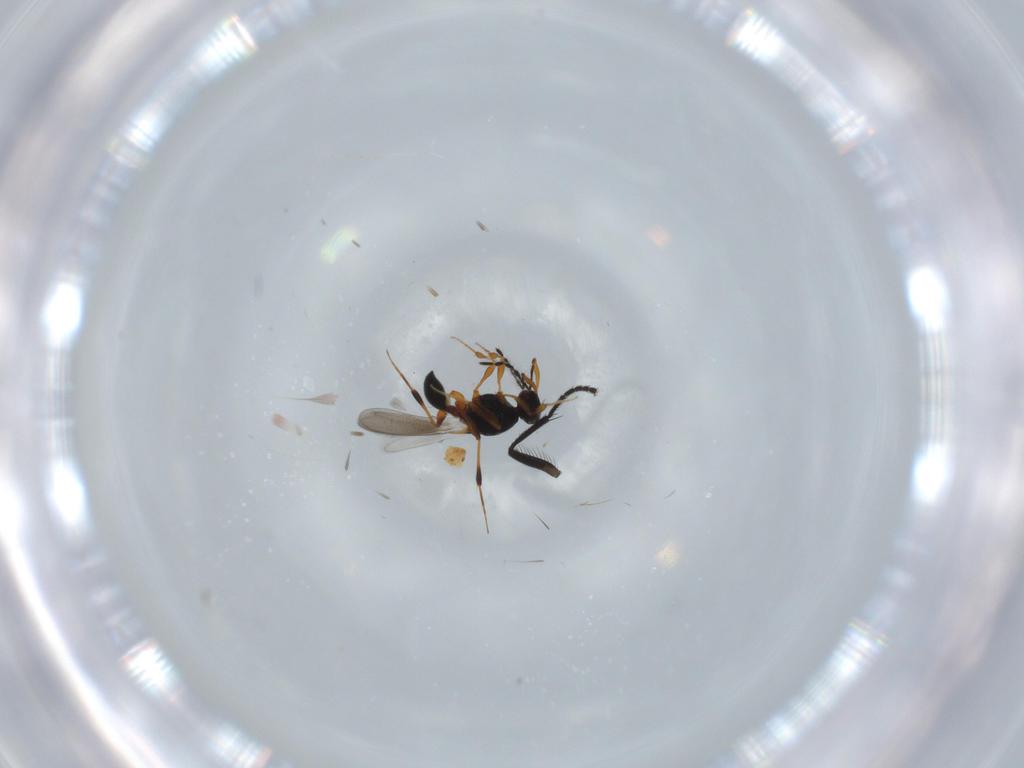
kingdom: Animalia
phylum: Arthropoda
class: Insecta
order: Hymenoptera
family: Platygastridae
